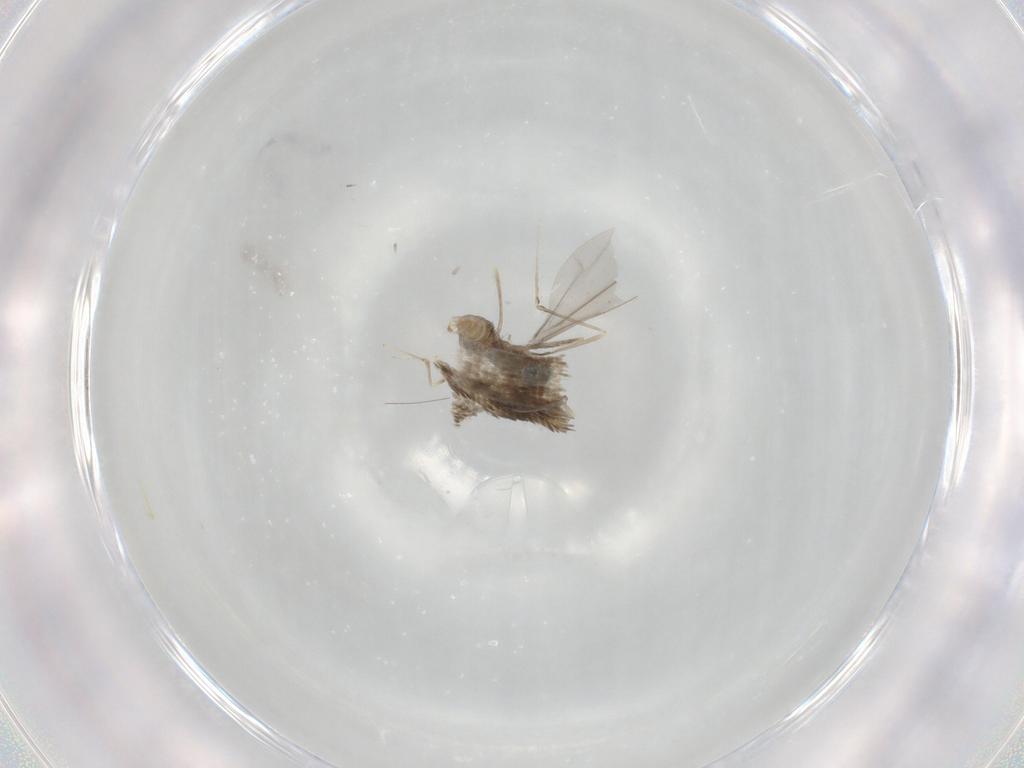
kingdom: Animalia
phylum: Arthropoda
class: Insecta
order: Diptera
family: Cecidomyiidae
